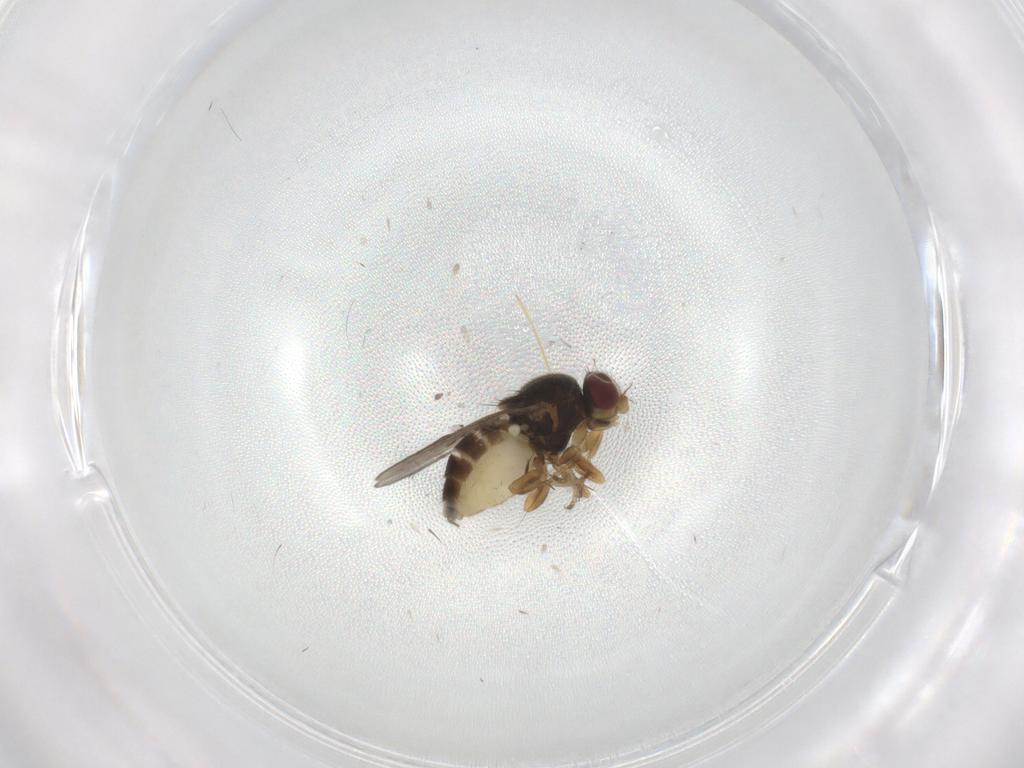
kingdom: Animalia
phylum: Arthropoda
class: Insecta
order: Diptera
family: Chloropidae
